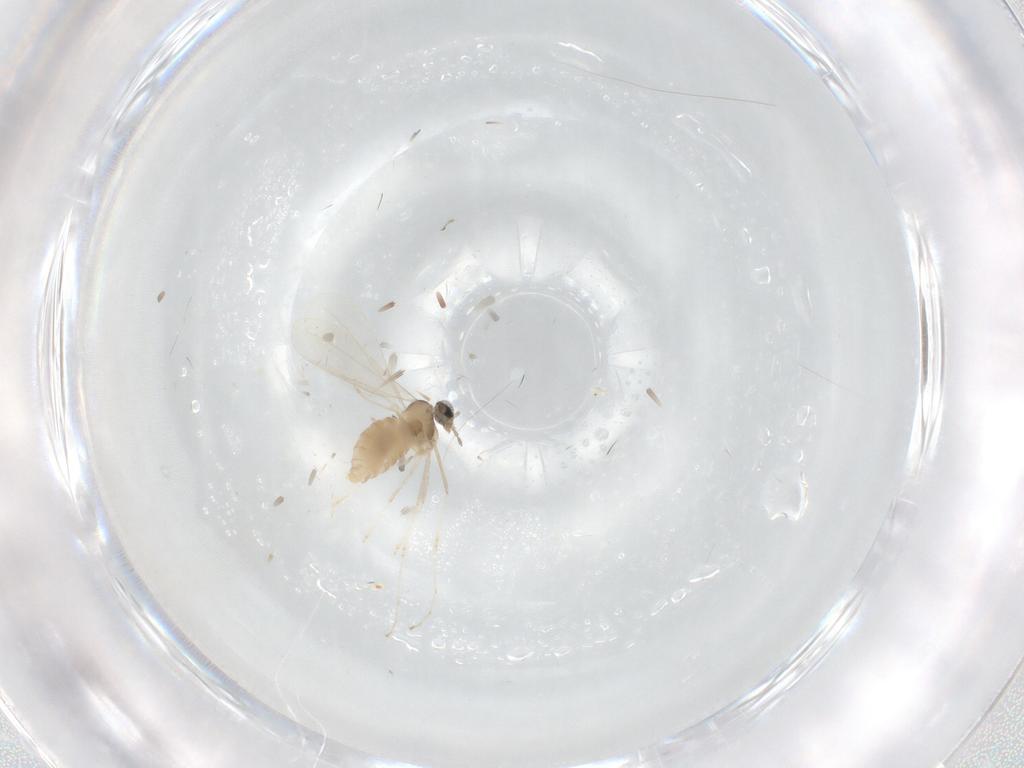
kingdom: Animalia
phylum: Arthropoda
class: Insecta
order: Diptera
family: Cecidomyiidae
